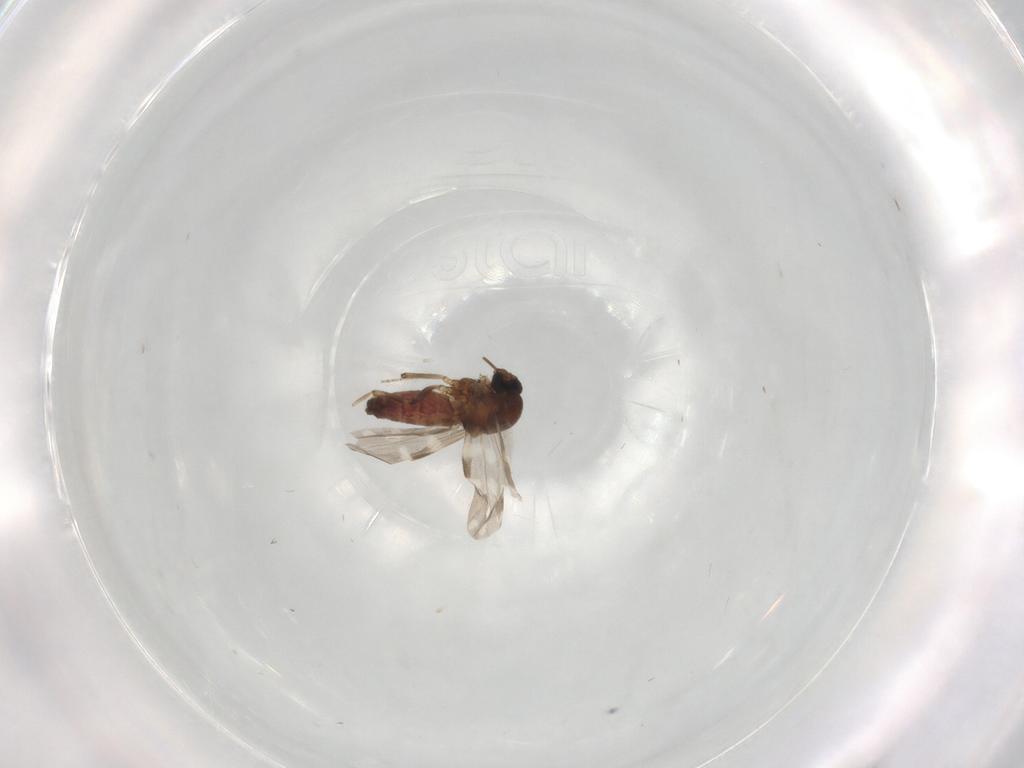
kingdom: Animalia
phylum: Arthropoda
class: Insecta
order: Diptera
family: Ceratopogonidae
